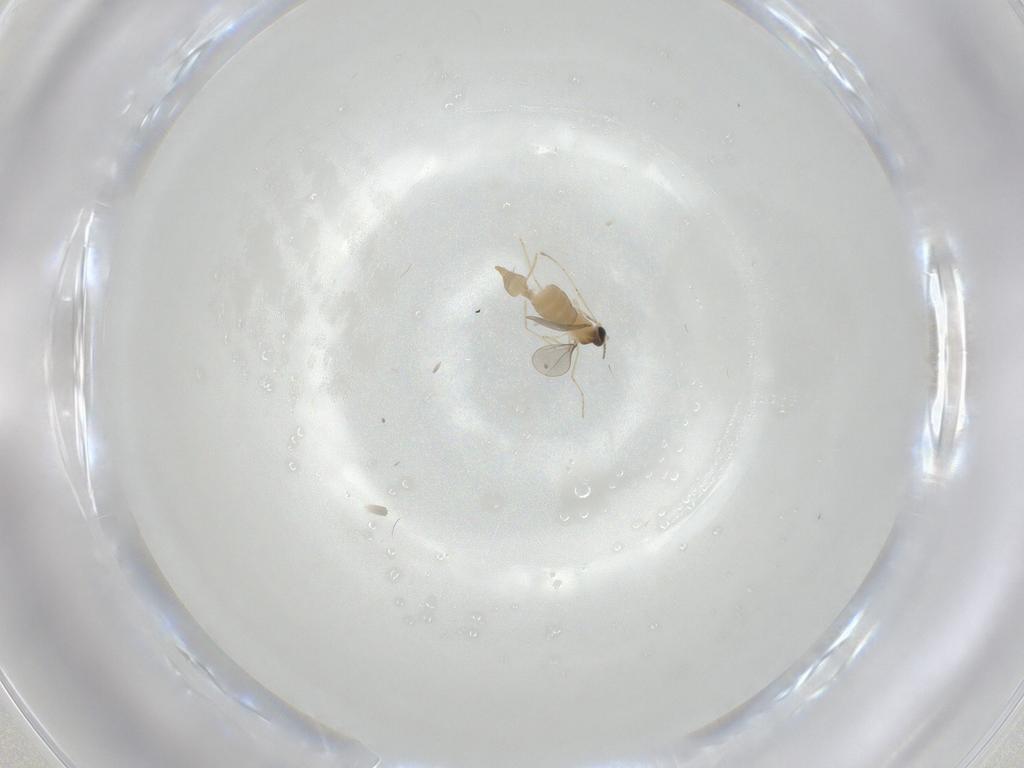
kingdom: Animalia
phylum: Arthropoda
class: Insecta
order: Diptera
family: Cecidomyiidae
